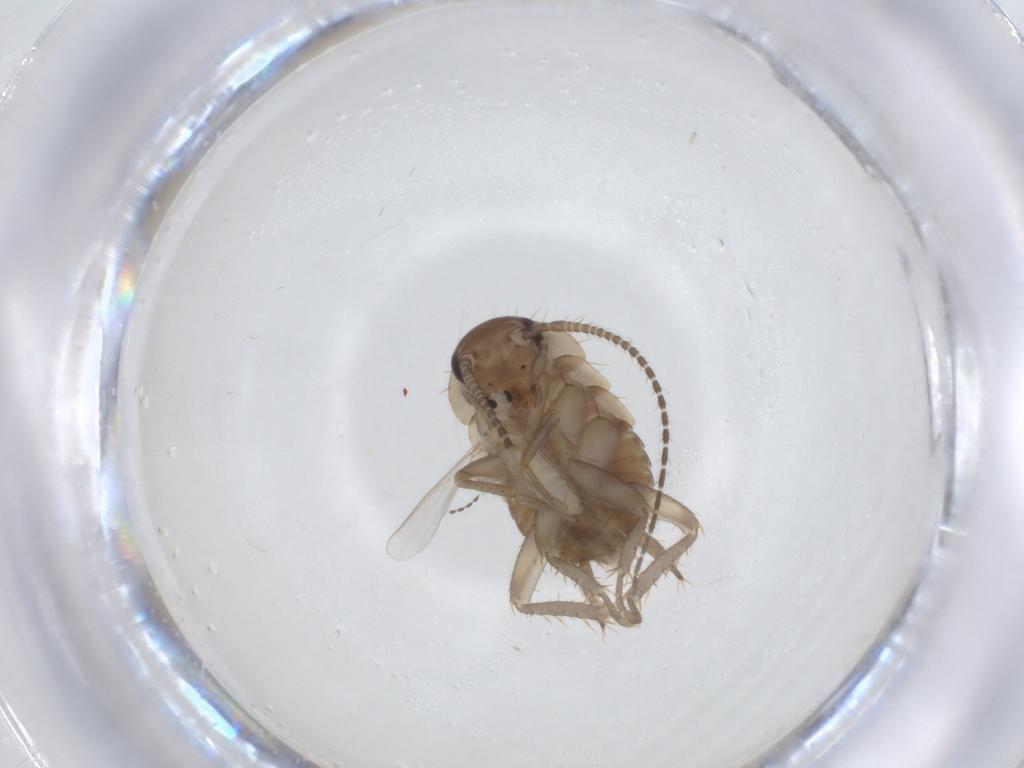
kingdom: Animalia
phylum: Arthropoda
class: Insecta
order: Blattodea
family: Ectobiidae
